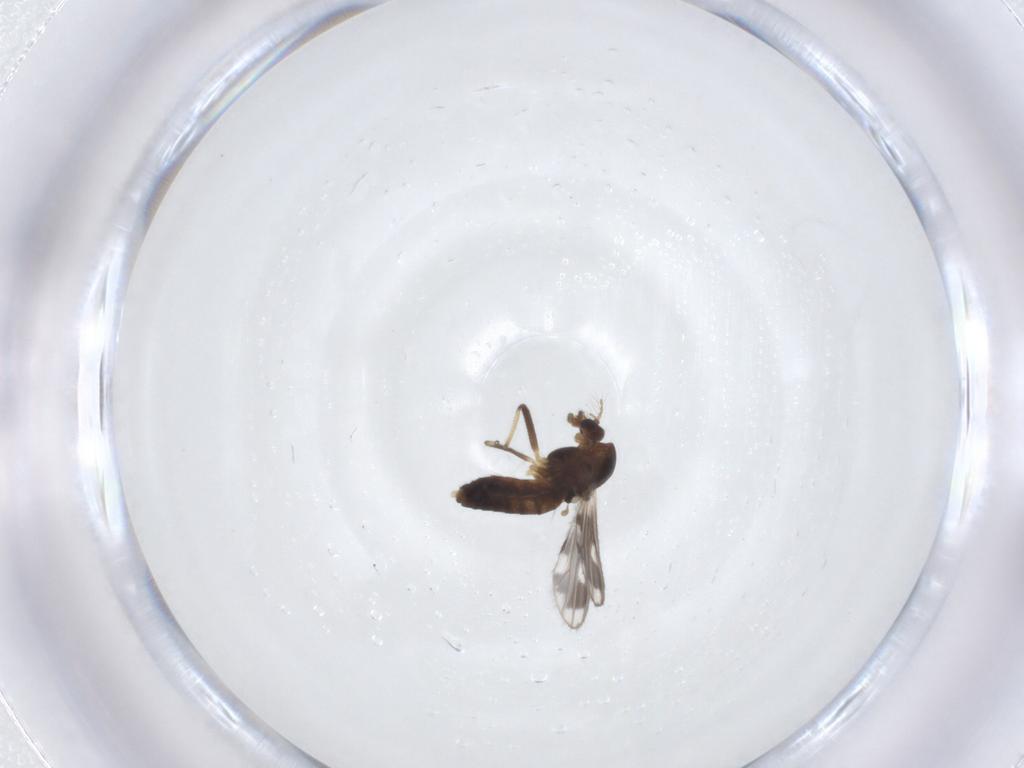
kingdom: Animalia
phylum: Arthropoda
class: Insecta
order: Diptera
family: Chironomidae
